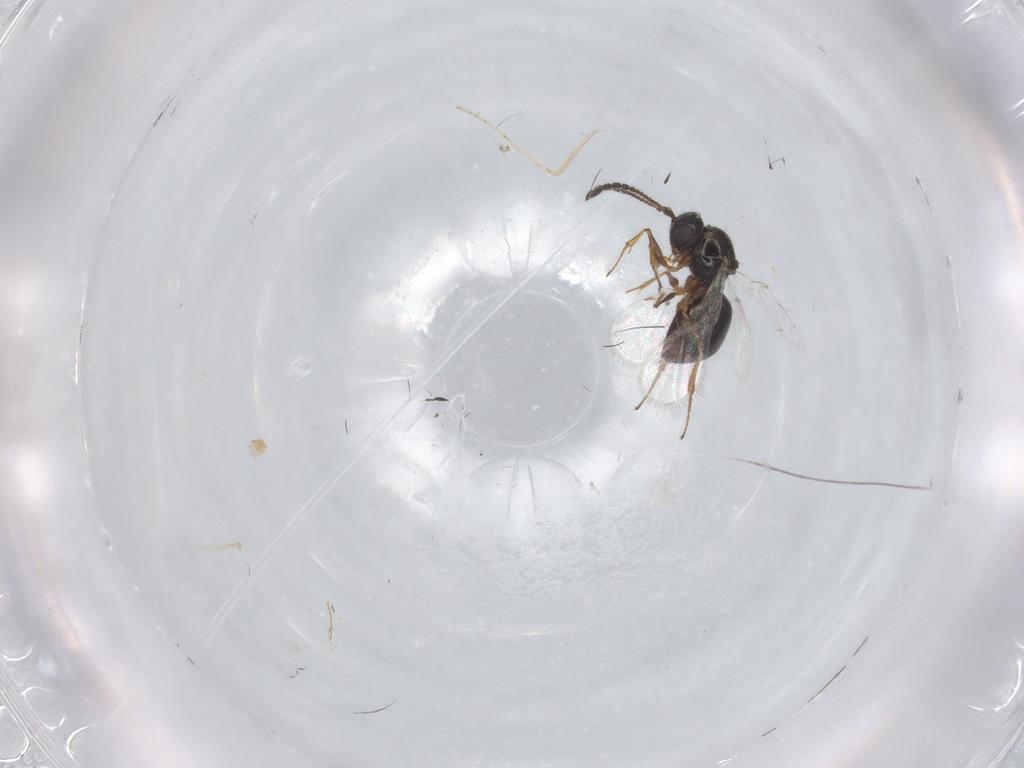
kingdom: Animalia
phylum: Arthropoda
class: Insecta
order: Hymenoptera
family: Figitidae
